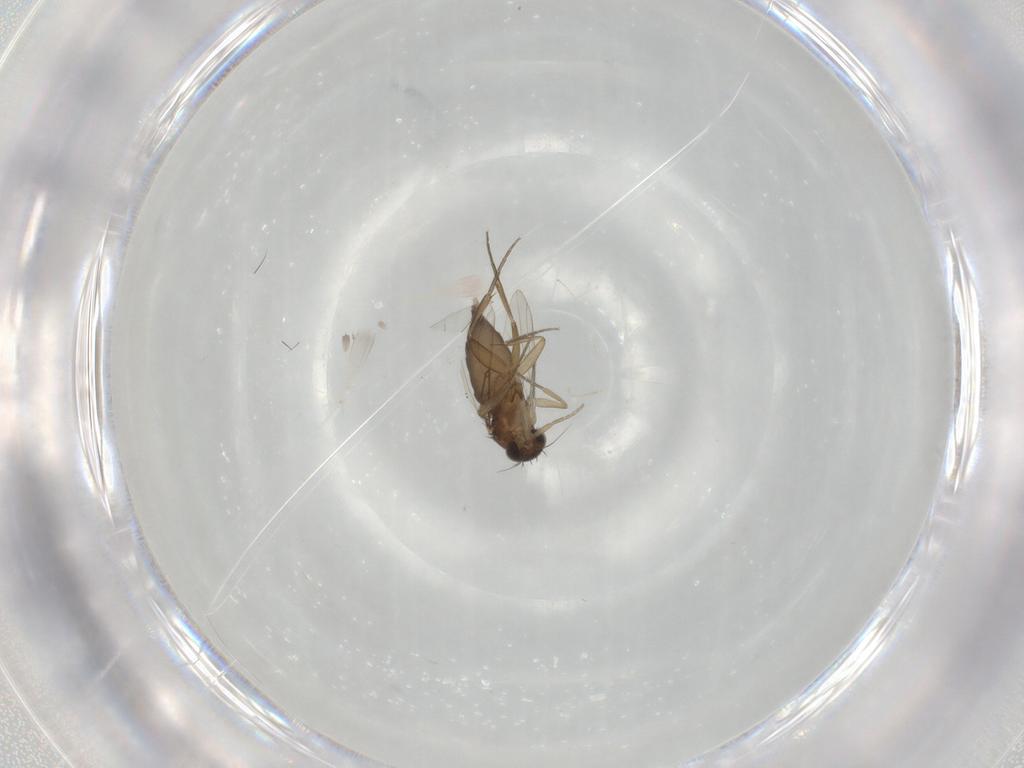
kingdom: Animalia
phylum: Arthropoda
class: Insecta
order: Diptera
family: Phoridae
